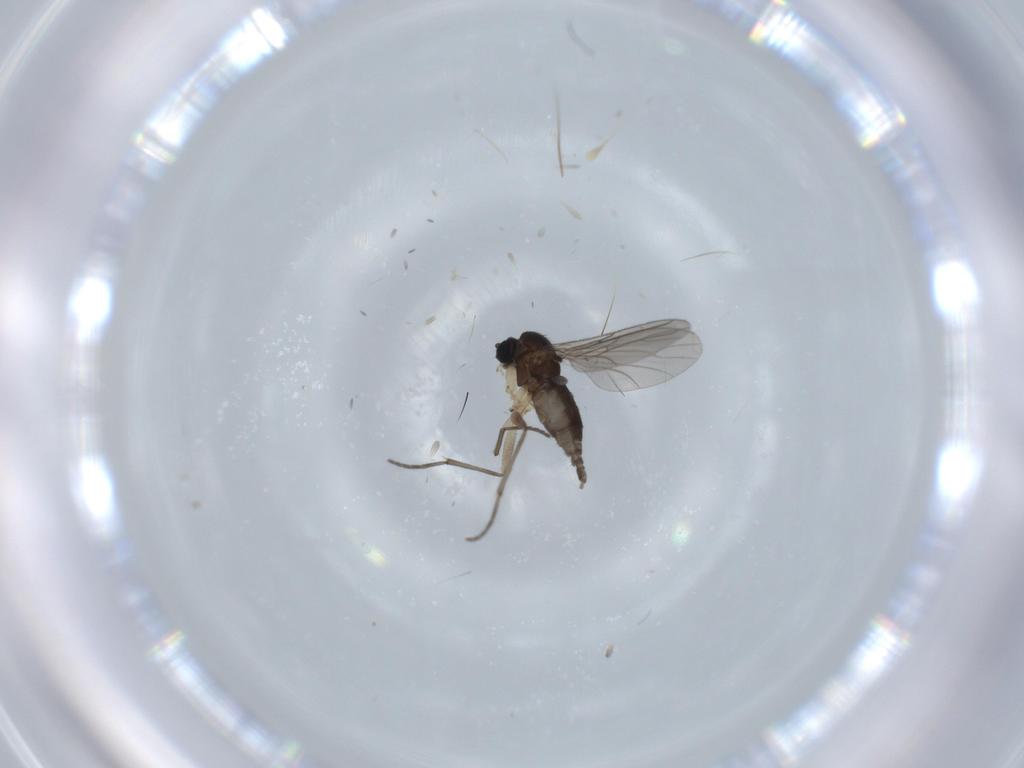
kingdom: Animalia
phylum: Arthropoda
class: Insecta
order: Diptera
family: Sciaridae
